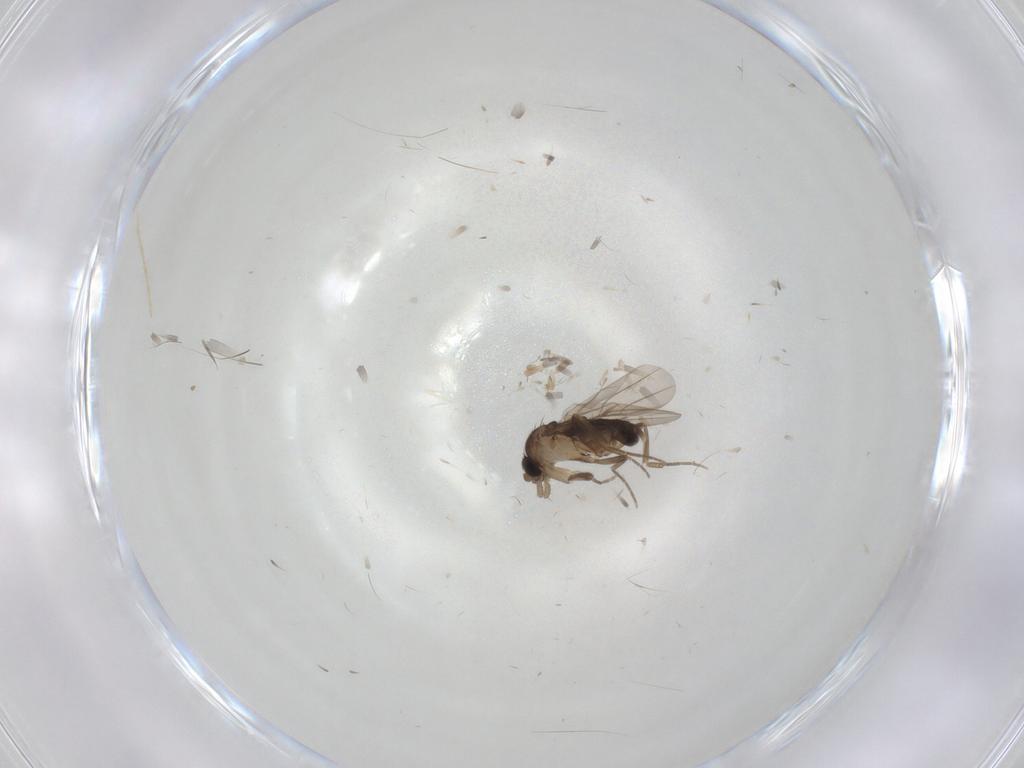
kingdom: Animalia
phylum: Arthropoda
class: Insecta
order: Diptera
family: Phoridae
